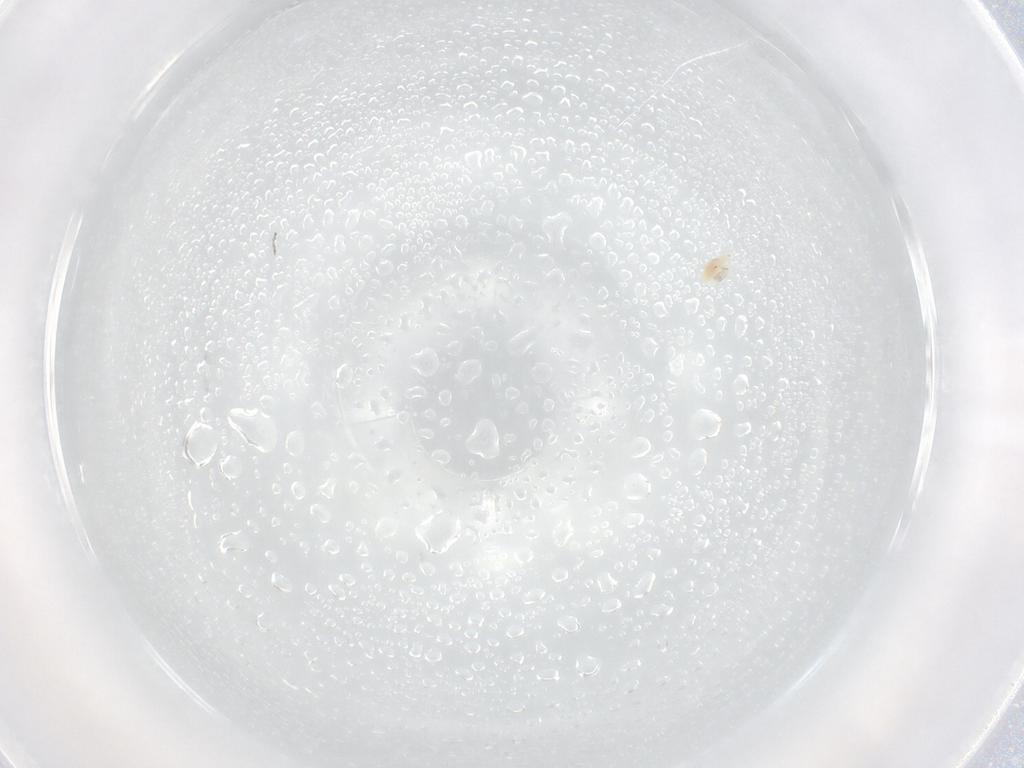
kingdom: Animalia
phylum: Arthropoda
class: Arachnida
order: Trombidiformes
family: Bdellidae
